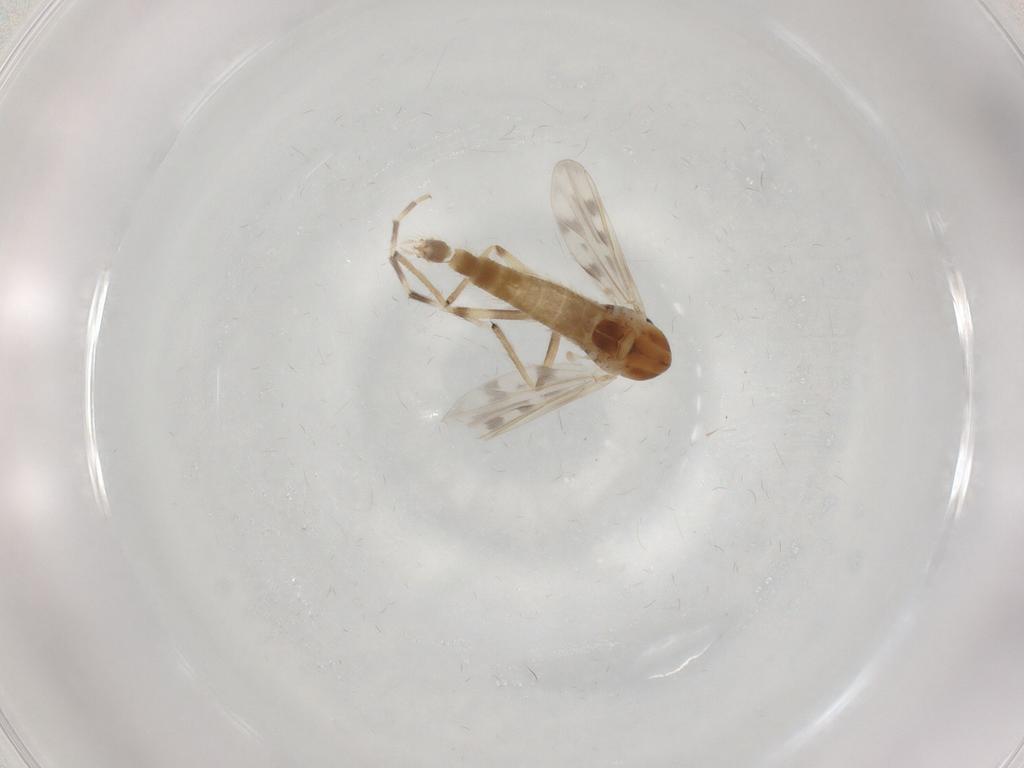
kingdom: Animalia
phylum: Arthropoda
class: Insecta
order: Diptera
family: Chironomidae
